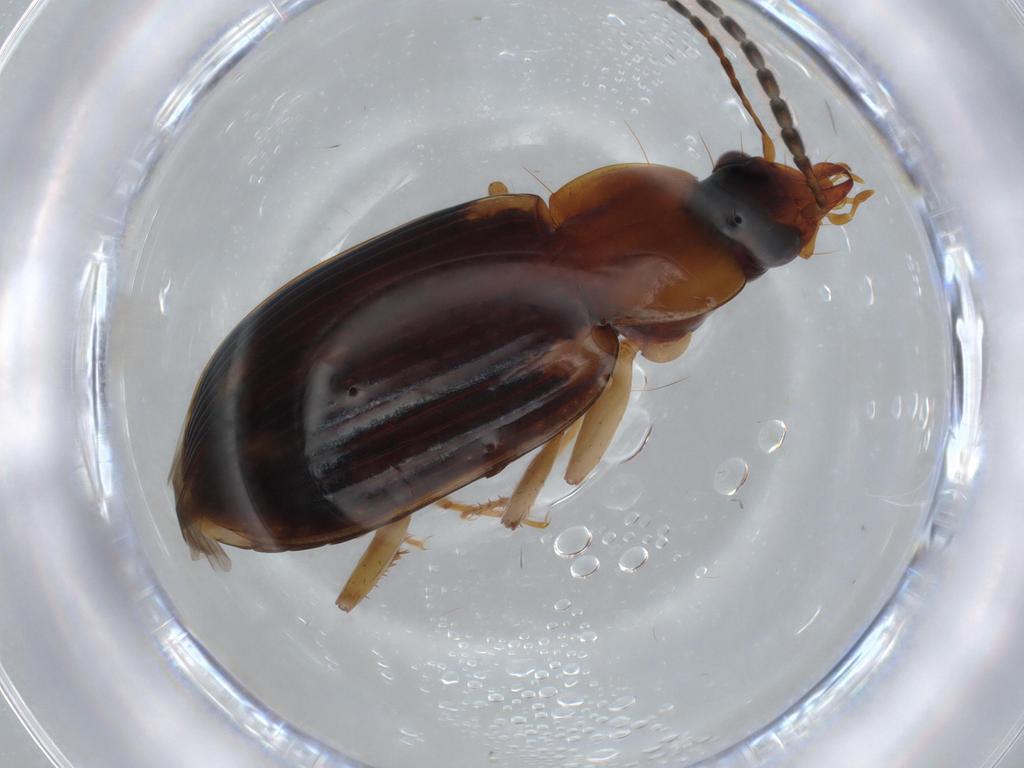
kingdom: Animalia
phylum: Arthropoda
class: Insecta
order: Coleoptera
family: Carabidae
